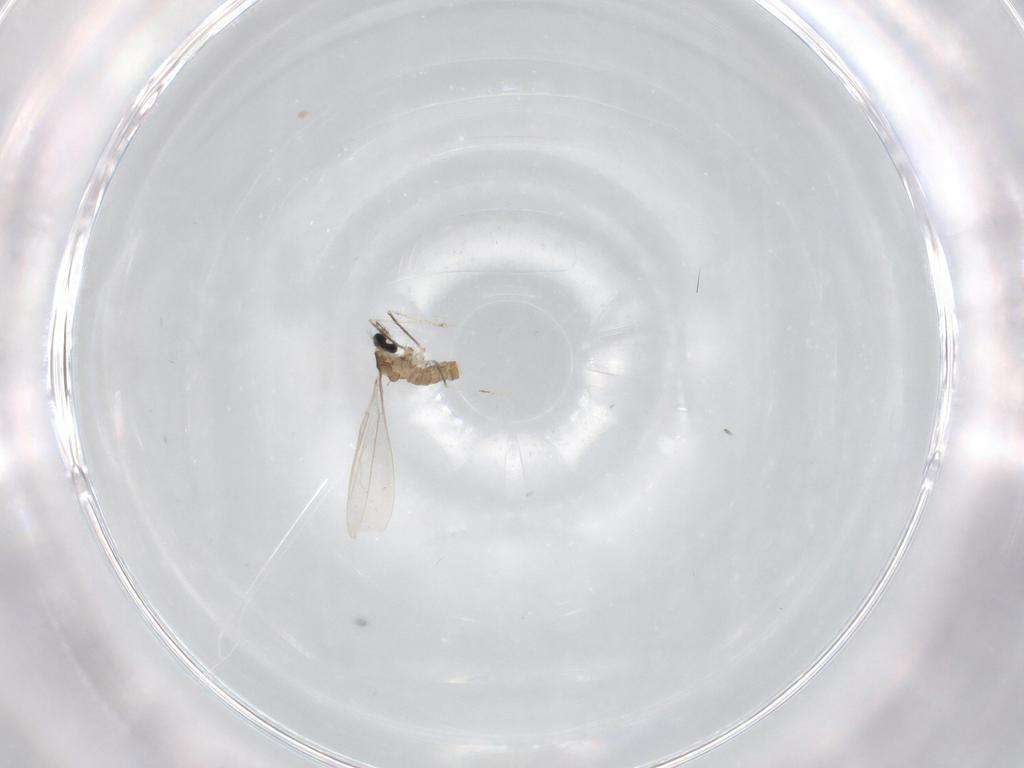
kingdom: Animalia
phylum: Arthropoda
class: Insecta
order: Diptera
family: Cecidomyiidae
